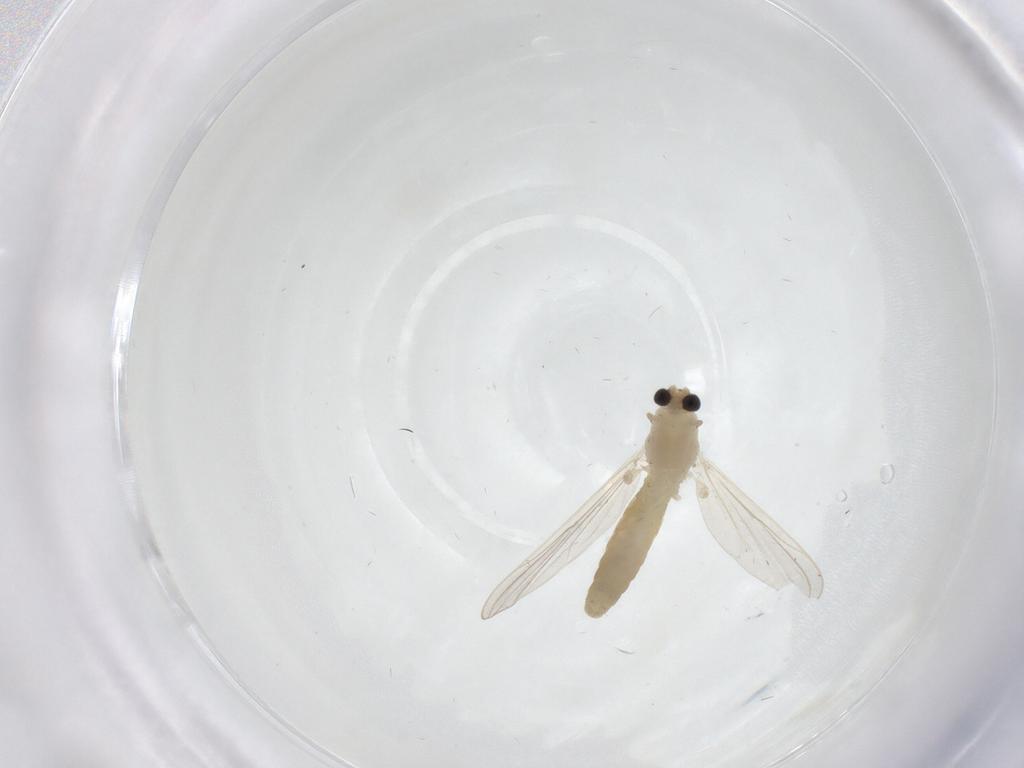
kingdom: Animalia
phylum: Arthropoda
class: Insecta
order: Diptera
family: Chironomidae
